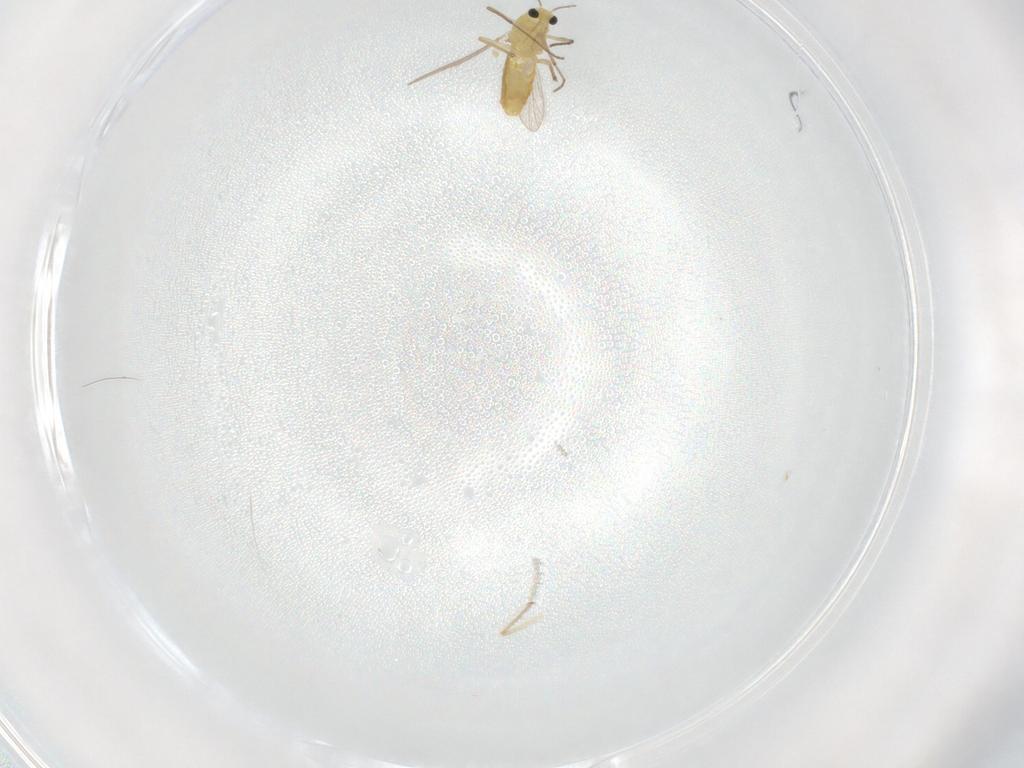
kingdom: Animalia
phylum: Arthropoda
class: Insecta
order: Diptera
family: Chironomidae
